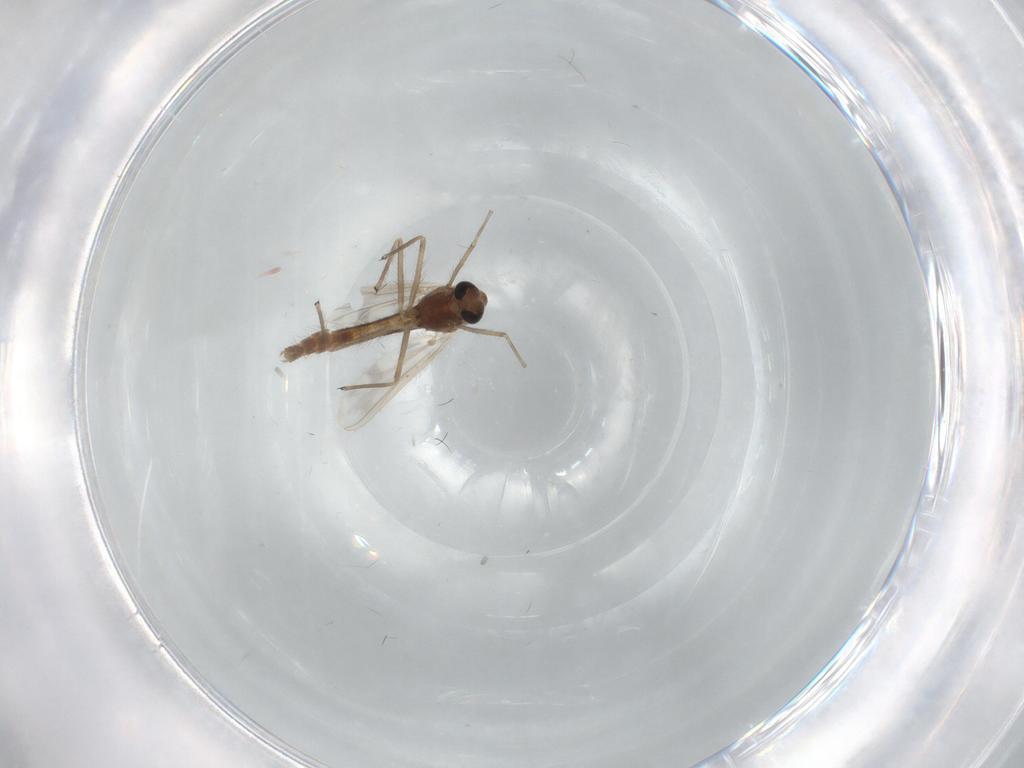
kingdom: Animalia
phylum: Arthropoda
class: Insecta
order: Diptera
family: Chironomidae
